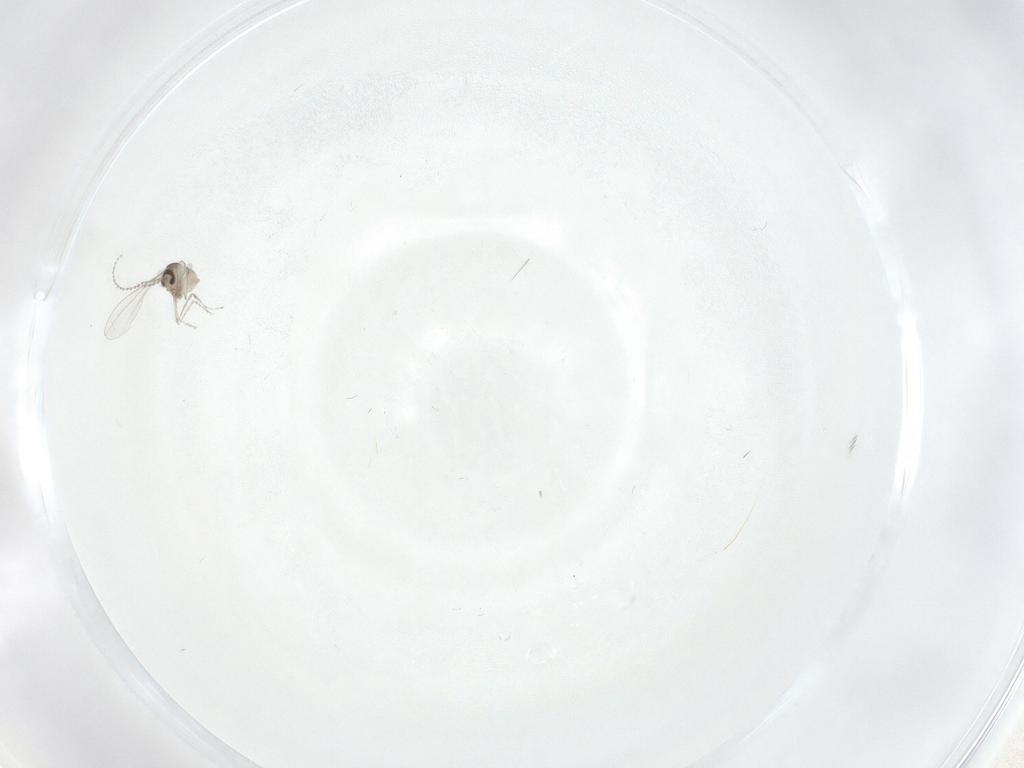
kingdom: Animalia
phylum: Arthropoda
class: Insecta
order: Diptera
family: Cecidomyiidae
